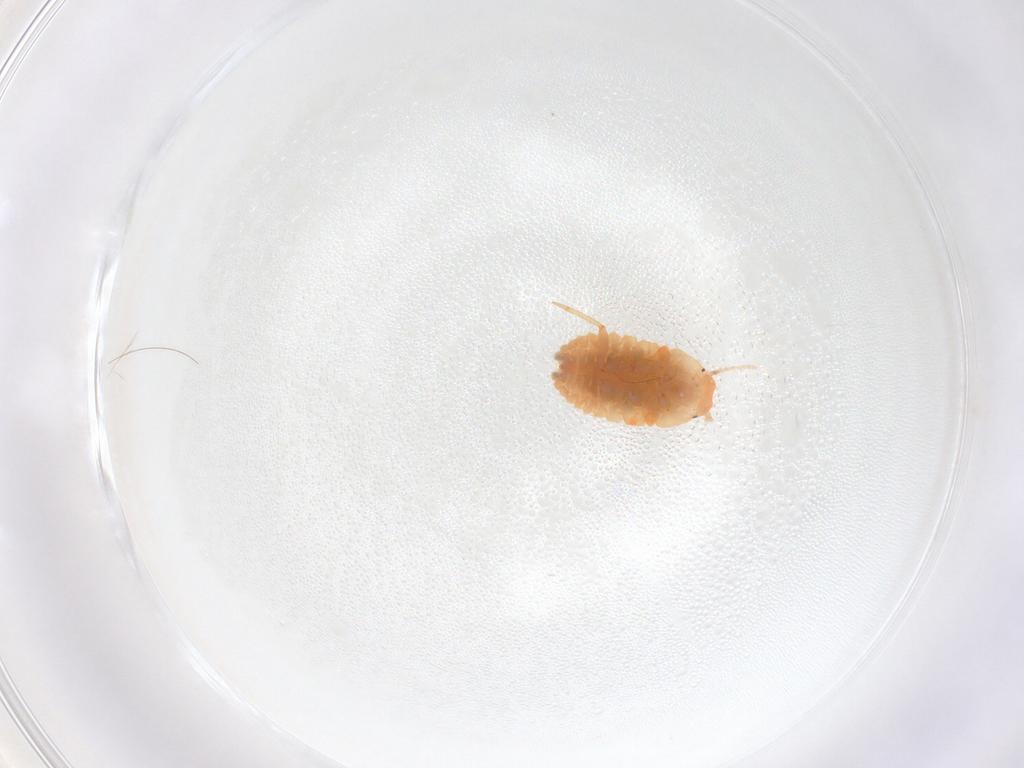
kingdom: Animalia
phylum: Arthropoda
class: Insecta
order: Hemiptera
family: Pseudococcidae
